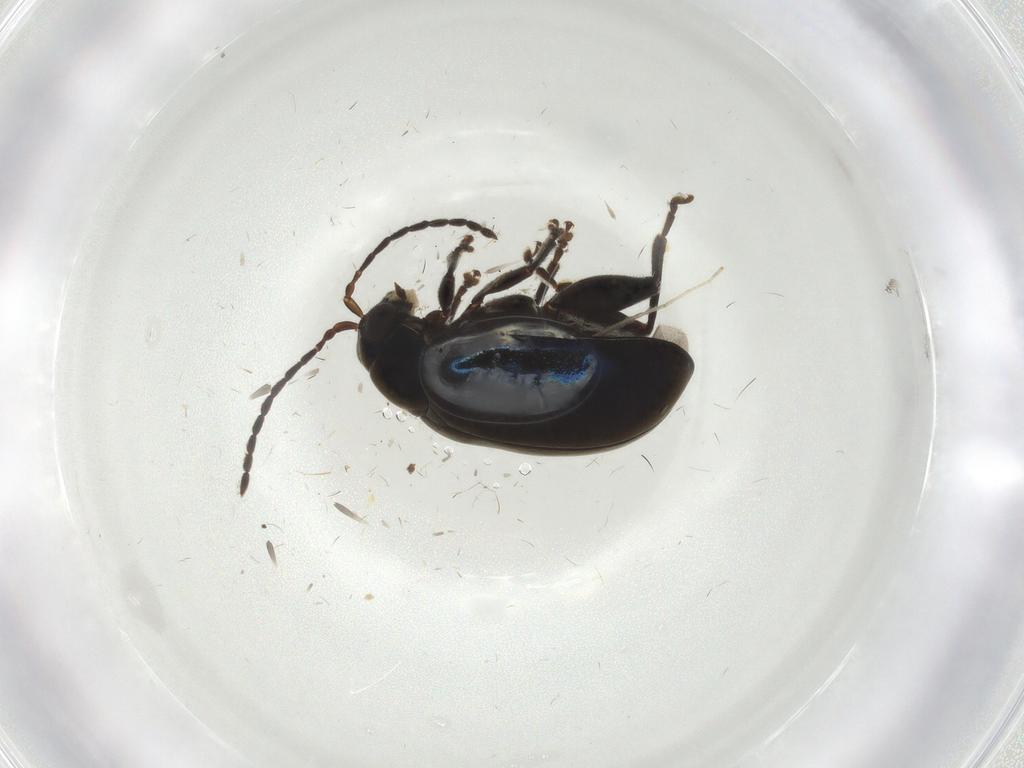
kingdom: Animalia
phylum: Arthropoda
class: Insecta
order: Coleoptera
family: Chrysomelidae
